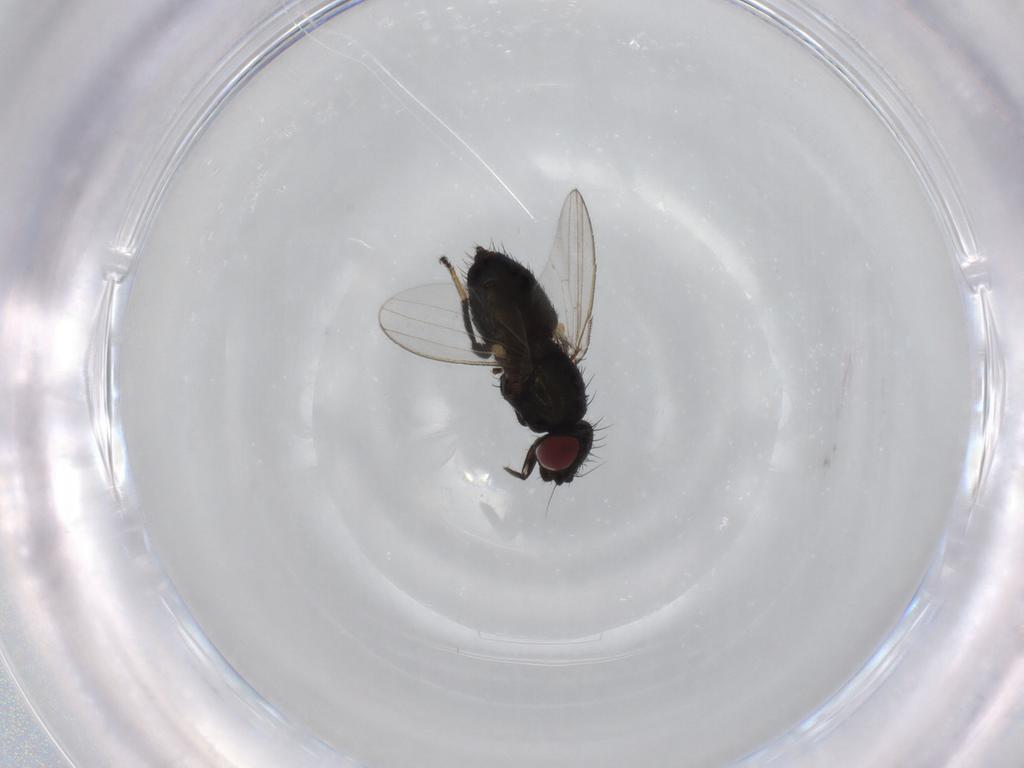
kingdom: Animalia
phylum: Arthropoda
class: Insecta
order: Diptera
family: Milichiidae
